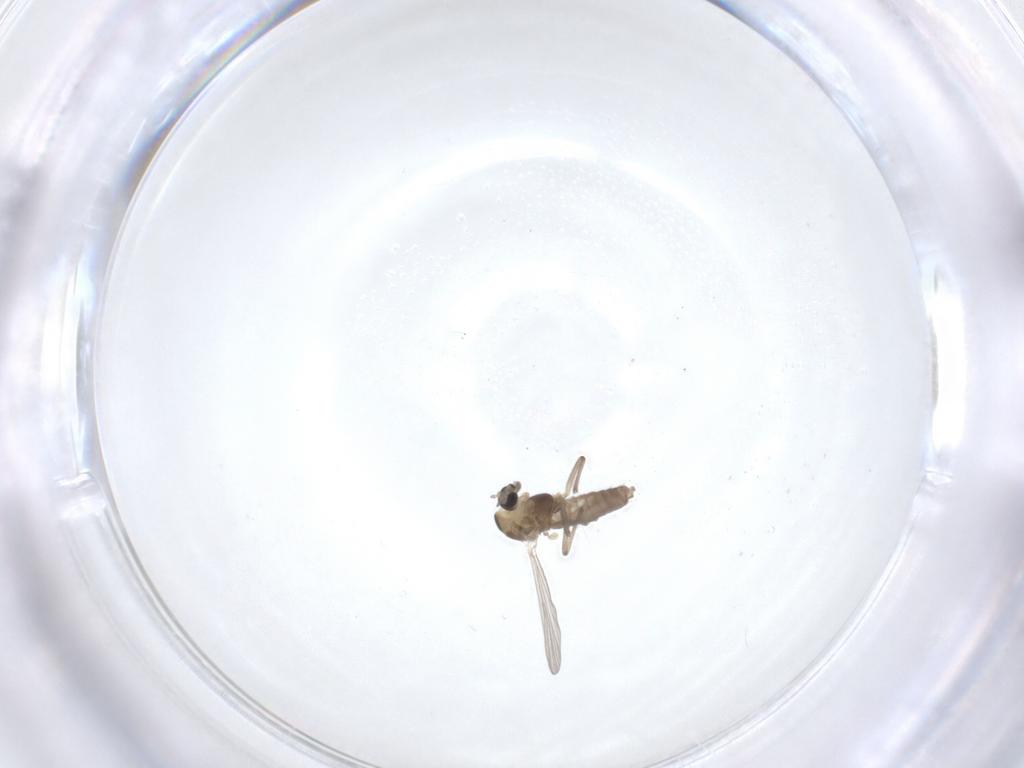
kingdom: Animalia
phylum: Arthropoda
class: Insecta
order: Diptera
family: Chironomidae
